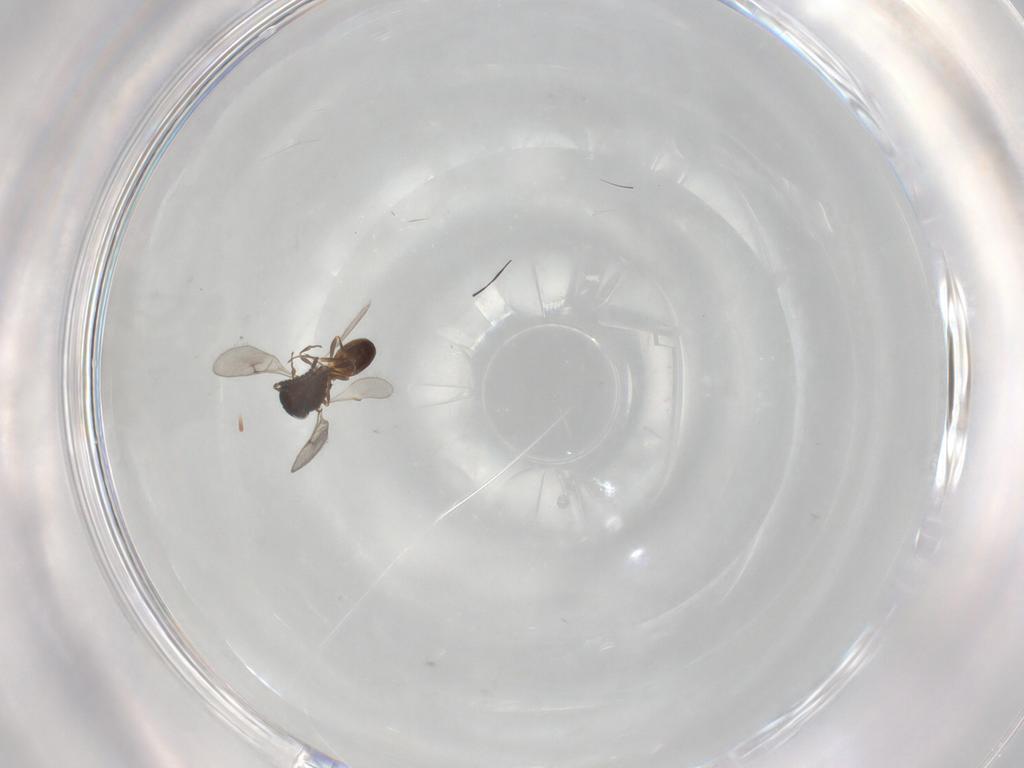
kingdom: Animalia
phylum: Arthropoda
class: Insecta
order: Hymenoptera
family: Scelionidae
